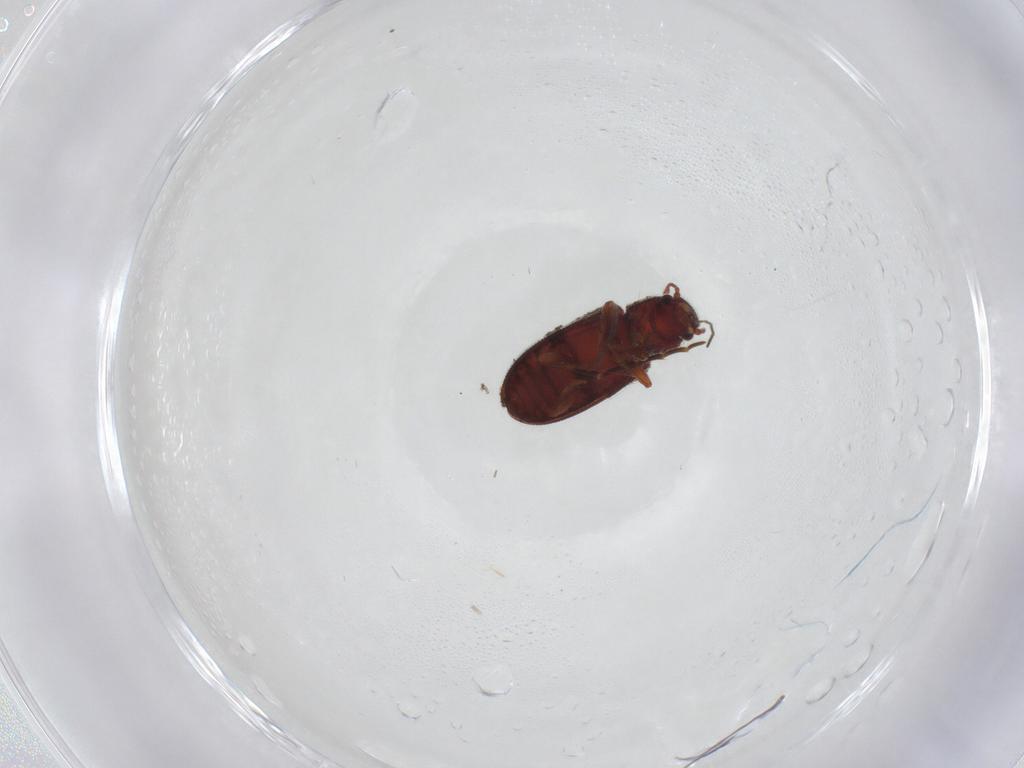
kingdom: Animalia
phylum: Arthropoda
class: Insecta
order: Coleoptera
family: Mycetophagidae
